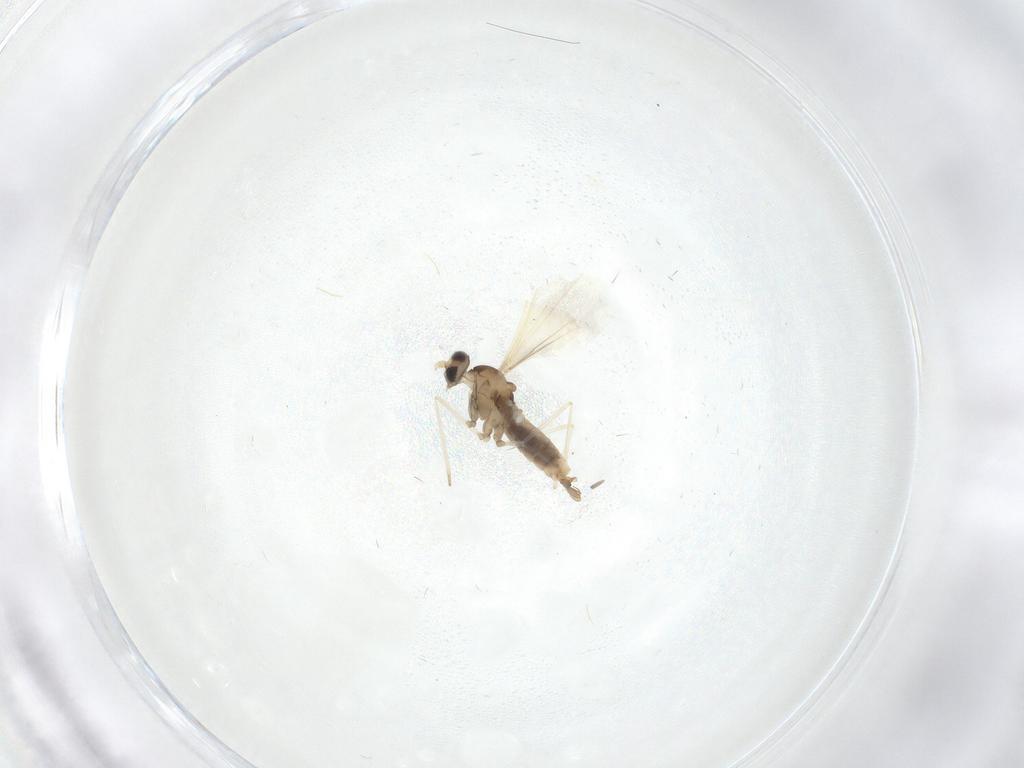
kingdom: Animalia
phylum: Arthropoda
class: Insecta
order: Diptera
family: Cecidomyiidae
